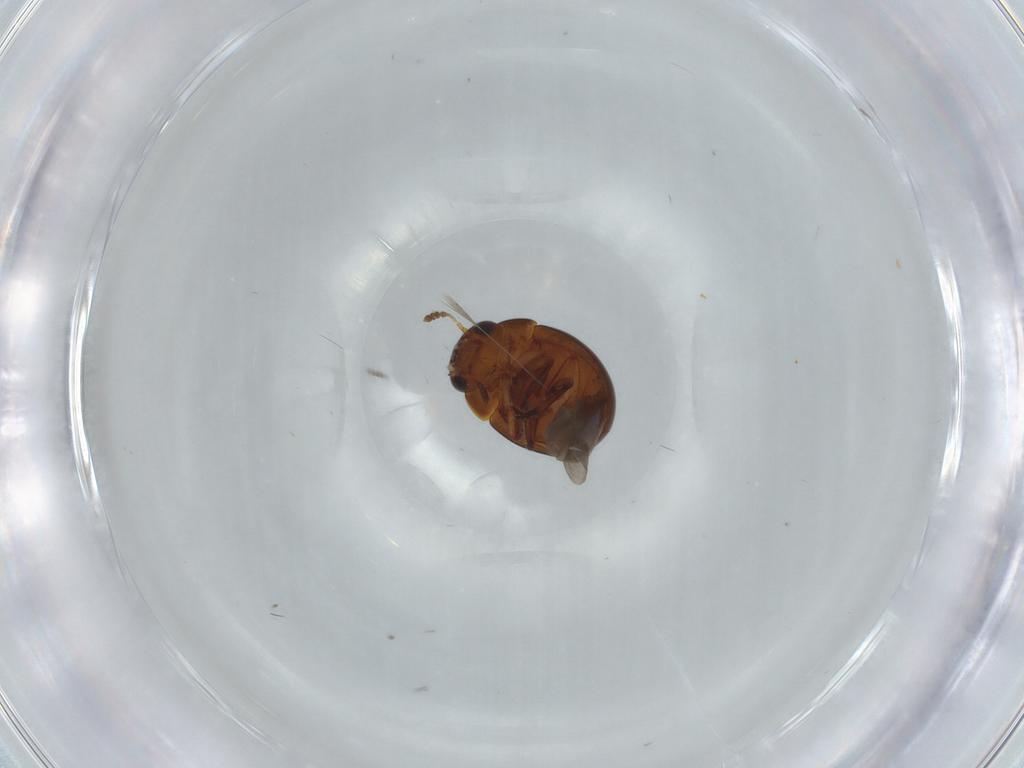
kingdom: Animalia
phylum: Arthropoda
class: Insecta
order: Coleoptera
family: Leiodidae
